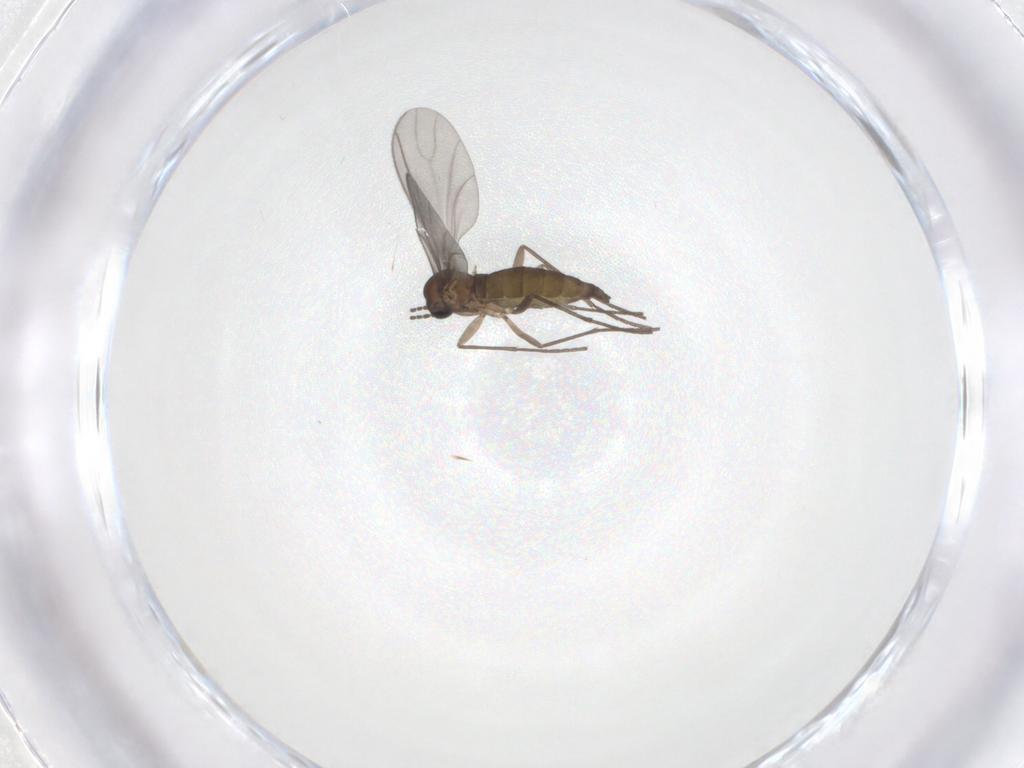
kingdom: Animalia
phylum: Arthropoda
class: Insecta
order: Diptera
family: Sciaridae
